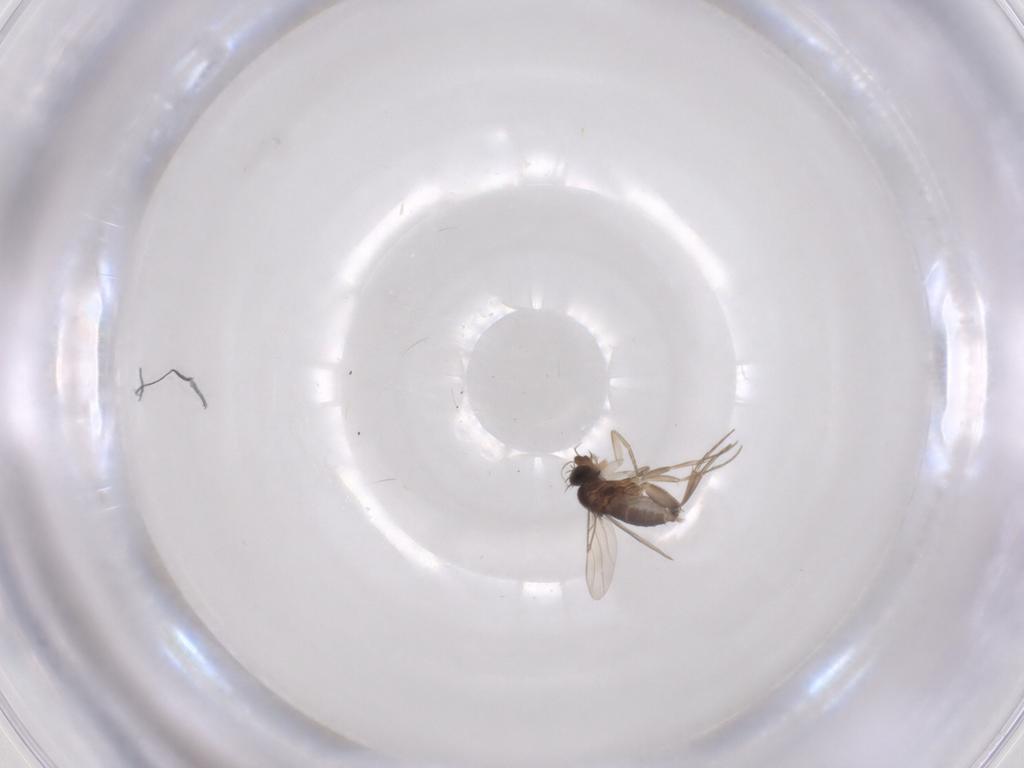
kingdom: Animalia
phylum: Arthropoda
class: Insecta
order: Diptera
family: Phoridae
